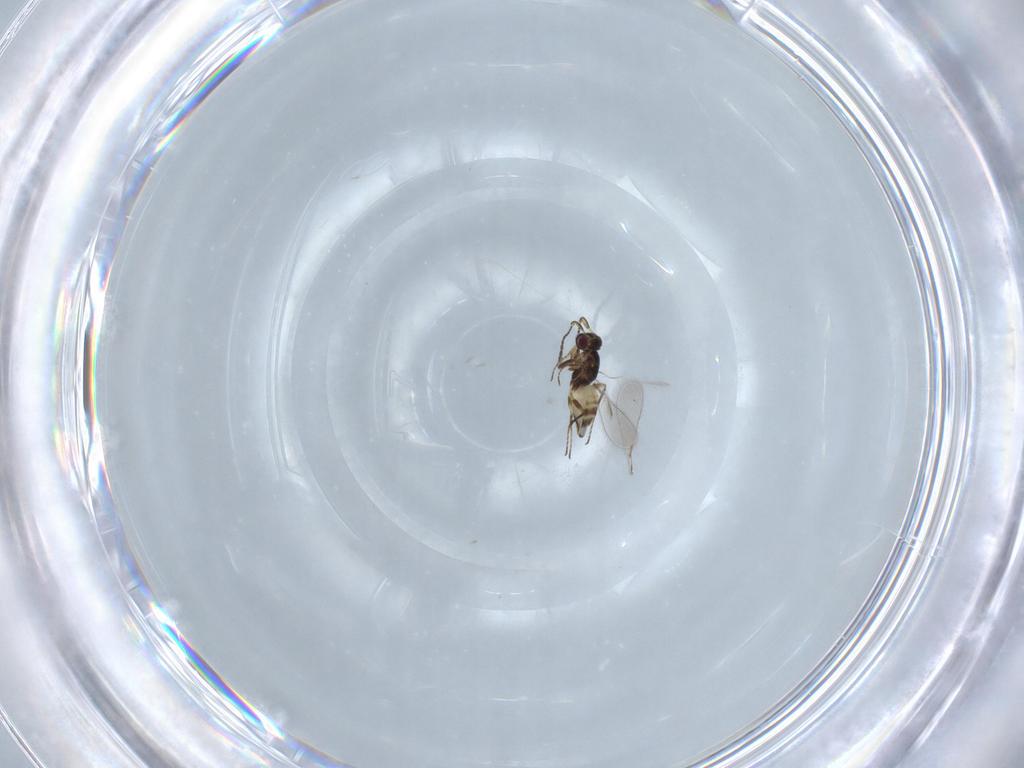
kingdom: Animalia
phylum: Arthropoda
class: Insecta
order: Hymenoptera
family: Mymaridae
